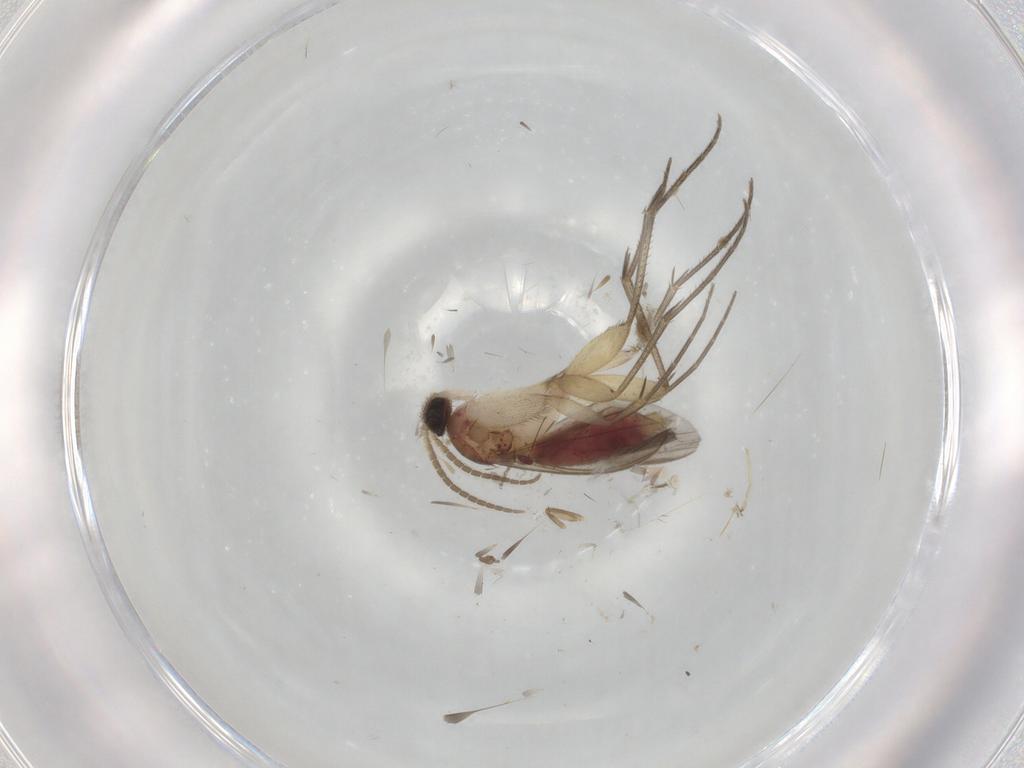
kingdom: Animalia
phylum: Arthropoda
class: Insecta
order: Diptera
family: Mycetophilidae
